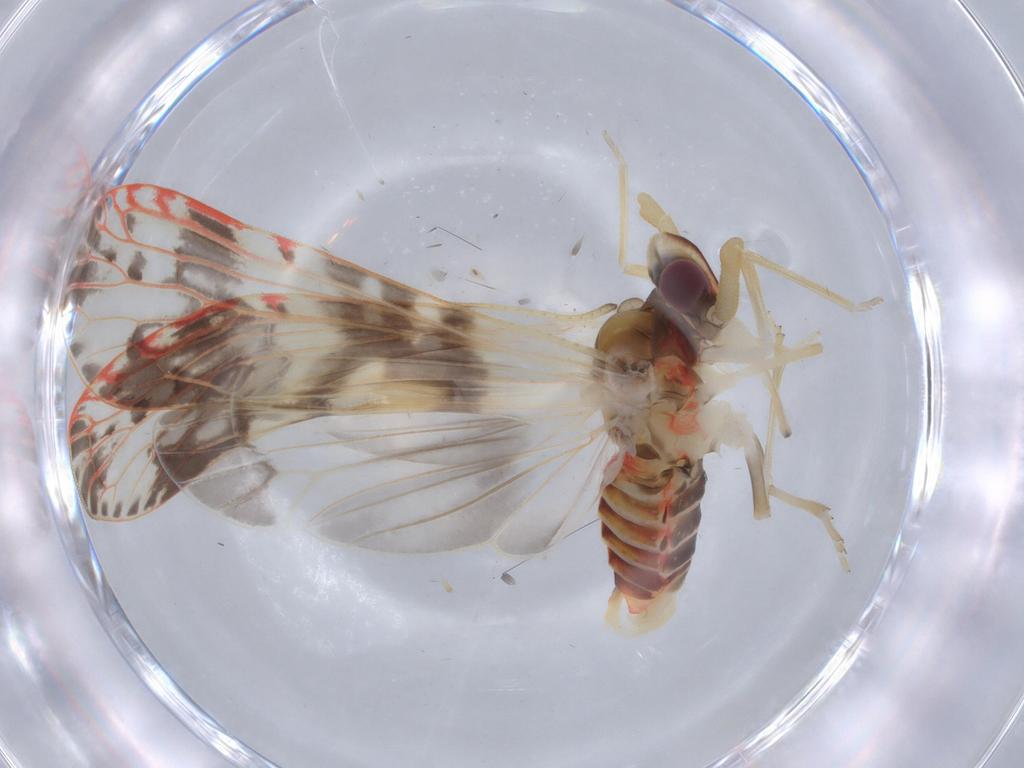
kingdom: Animalia
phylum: Arthropoda
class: Insecta
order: Hemiptera
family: Derbidae
